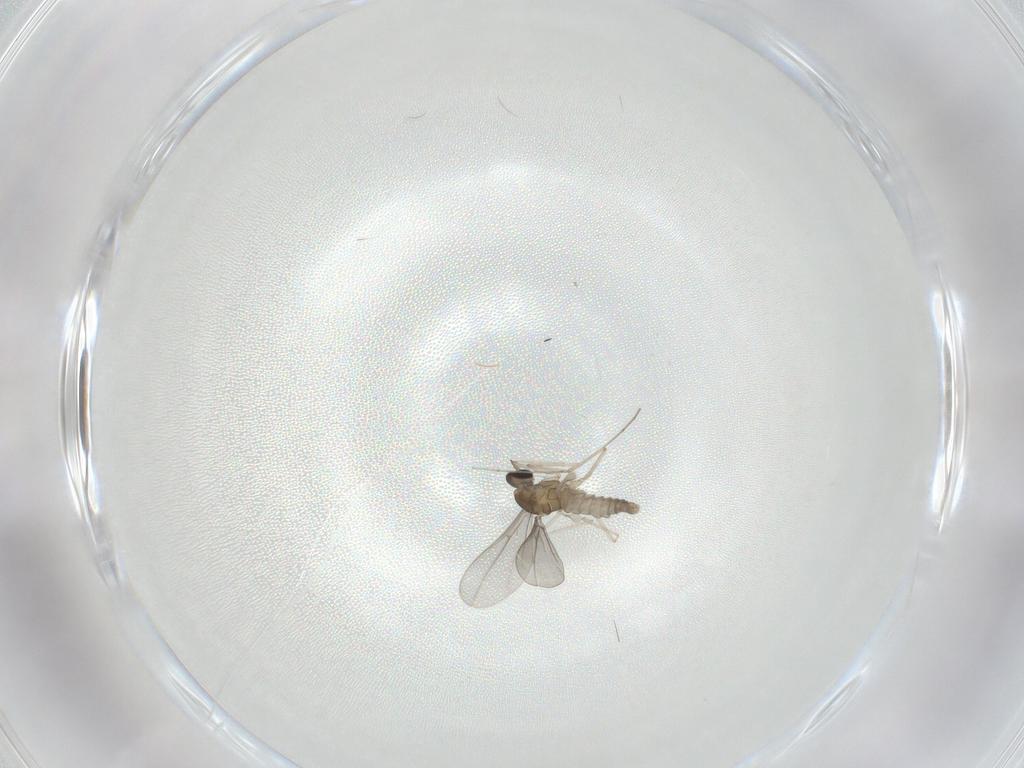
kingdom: Animalia
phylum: Arthropoda
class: Insecta
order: Diptera
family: Cecidomyiidae
